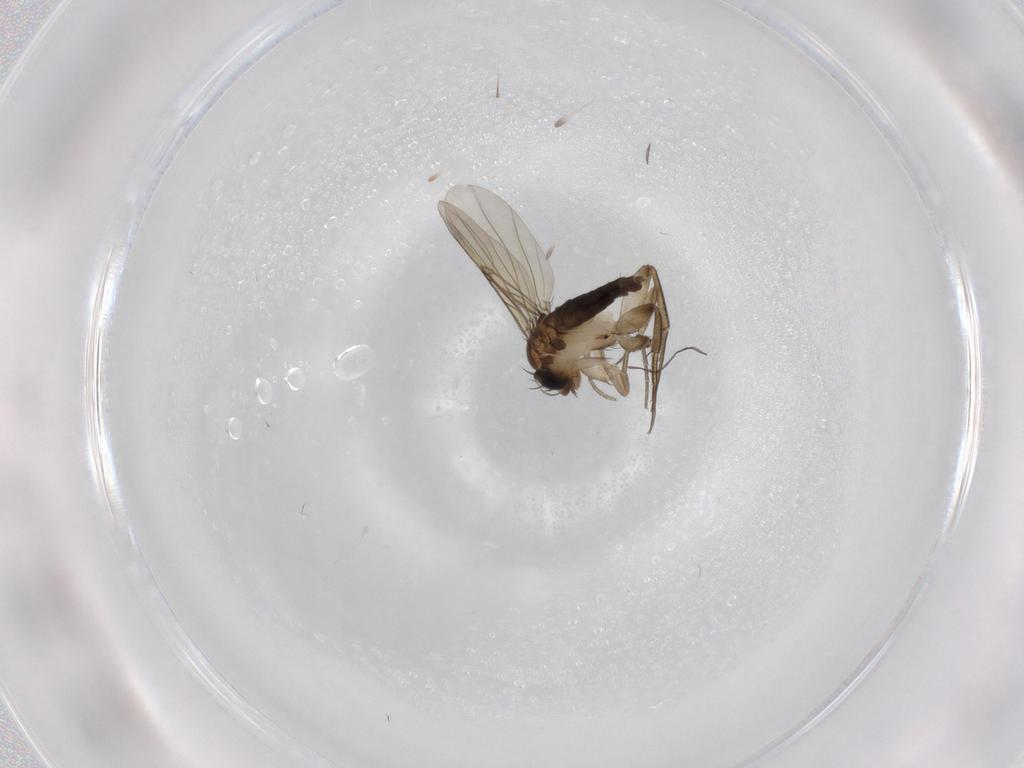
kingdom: Animalia
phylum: Arthropoda
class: Insecta
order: Diptera
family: Phoridae
